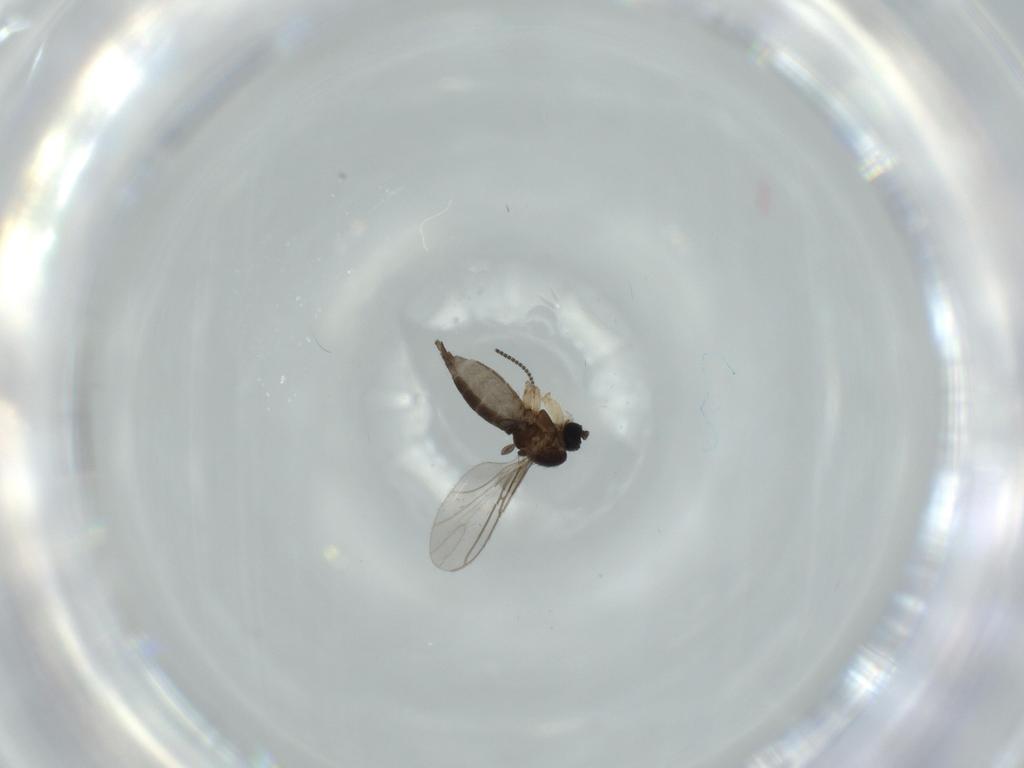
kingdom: Animalia
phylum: Arthropoda
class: Insecta
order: Diptera
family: Sciaridae
